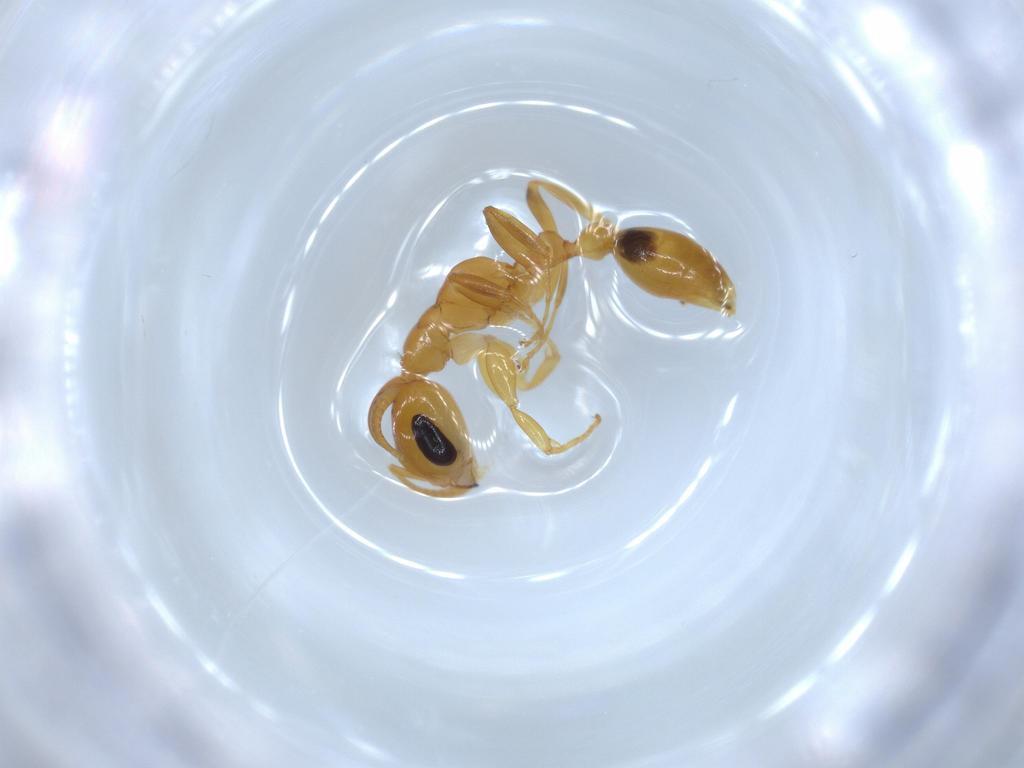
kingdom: Animalia
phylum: Arthropoda
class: Insecta
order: Hymenoptera
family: Formicidae
